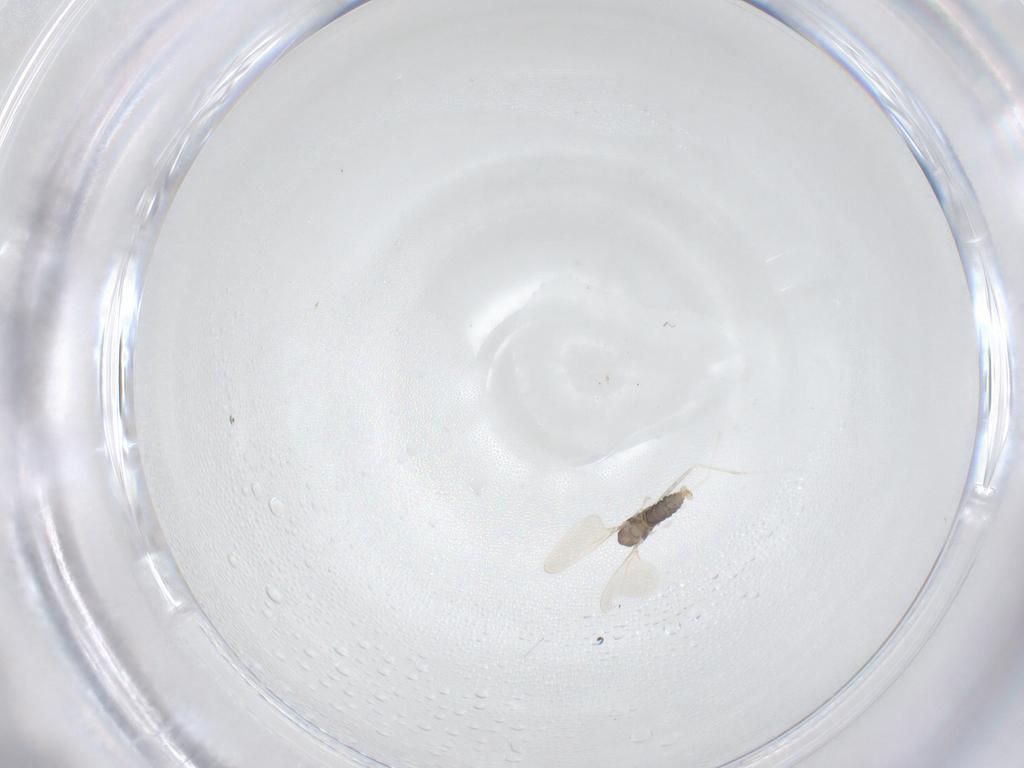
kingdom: Animalia
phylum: Arthropoda
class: Insecta
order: Diptera
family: Cecidomyiidae
